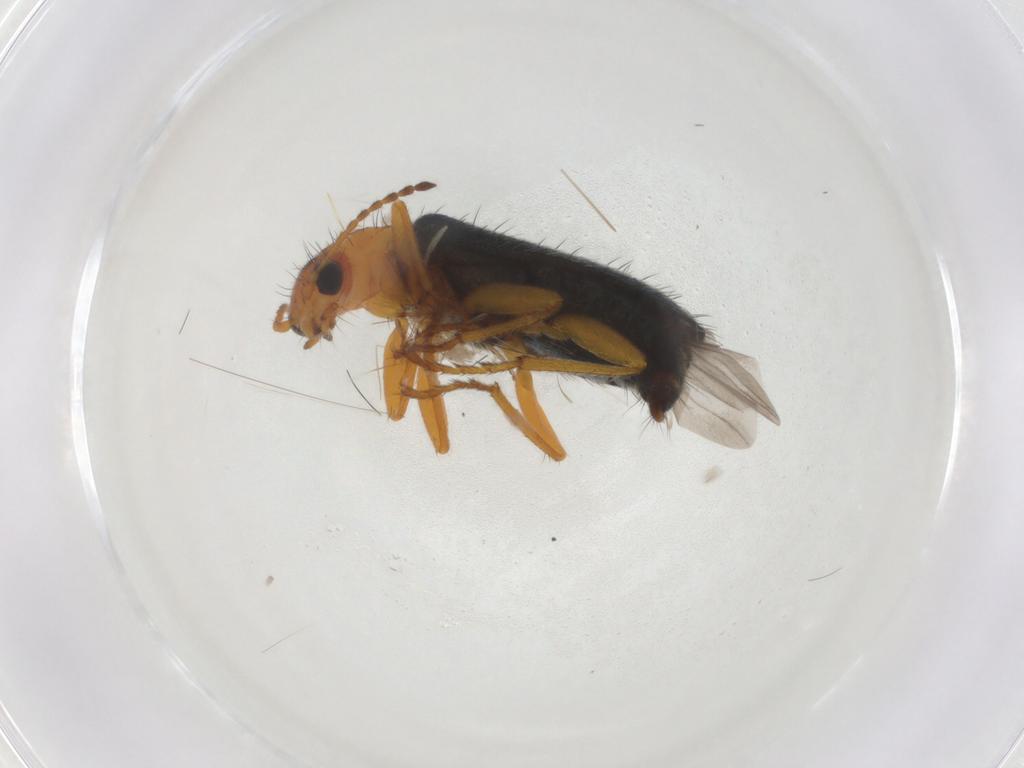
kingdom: Animalia
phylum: Arthropoda
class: Insecta
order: Coleoptera
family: Melyridae
